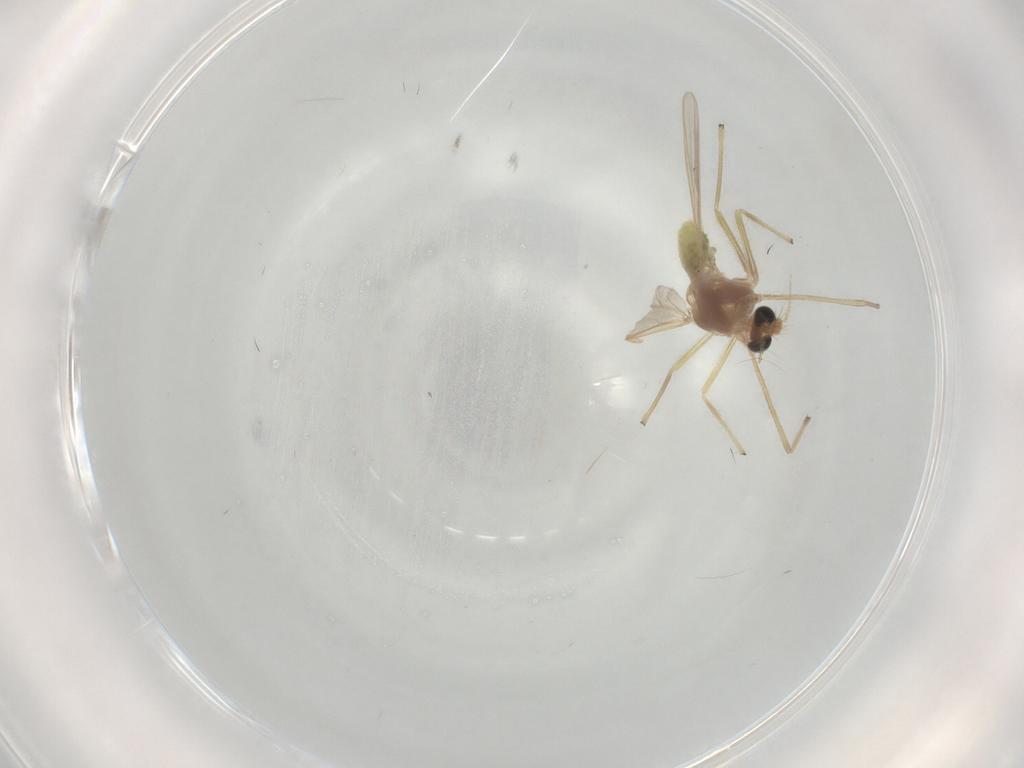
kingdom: Animalia
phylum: Arthropoda
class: Insecta
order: Diptera
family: Chironomidae
